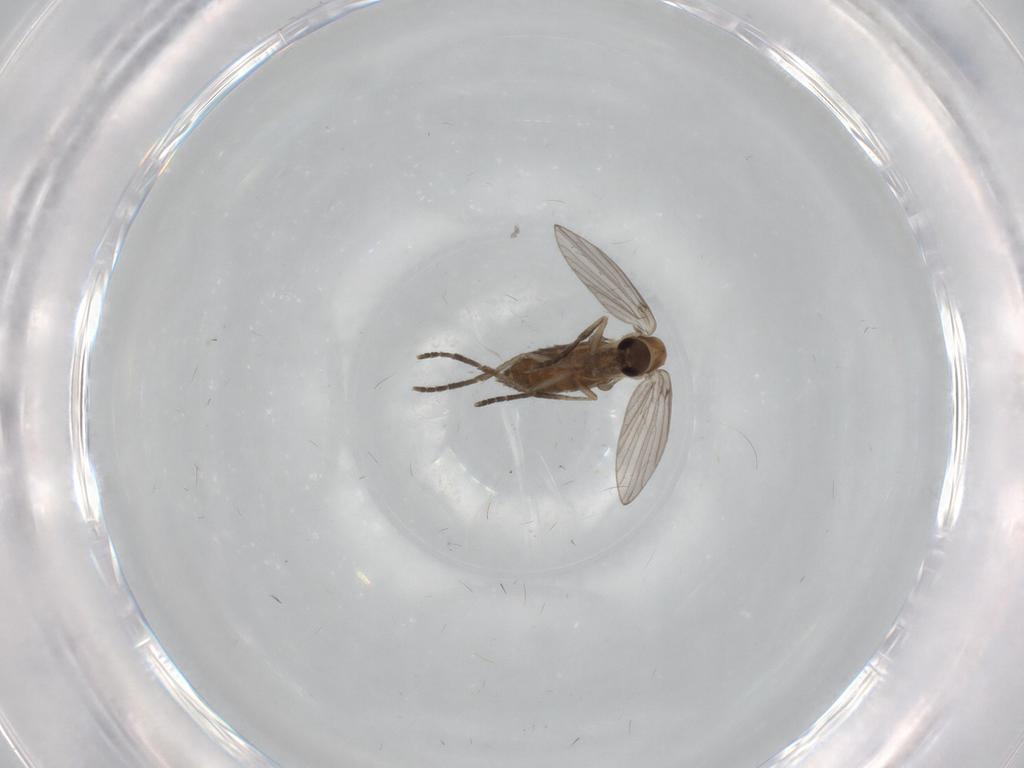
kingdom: Animalia
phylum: Arthropoda
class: Insecta
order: Diptera
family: Psychodidae
